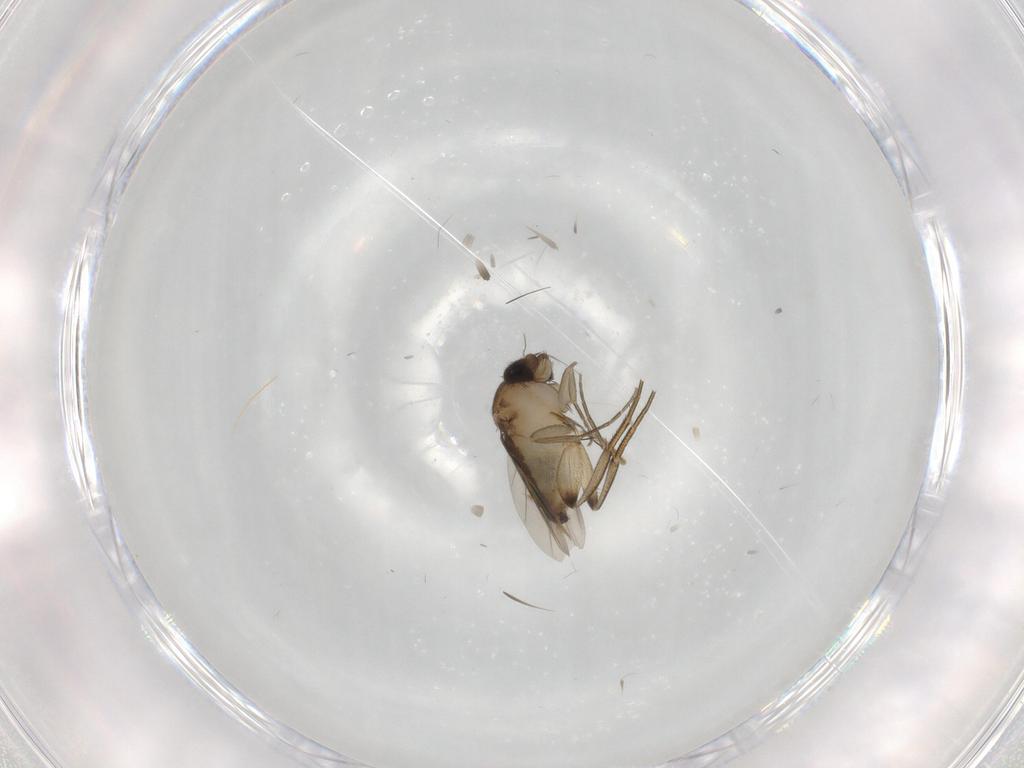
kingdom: Animalia
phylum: Arthropoda
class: Insecta
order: Diptera
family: Phoridae
